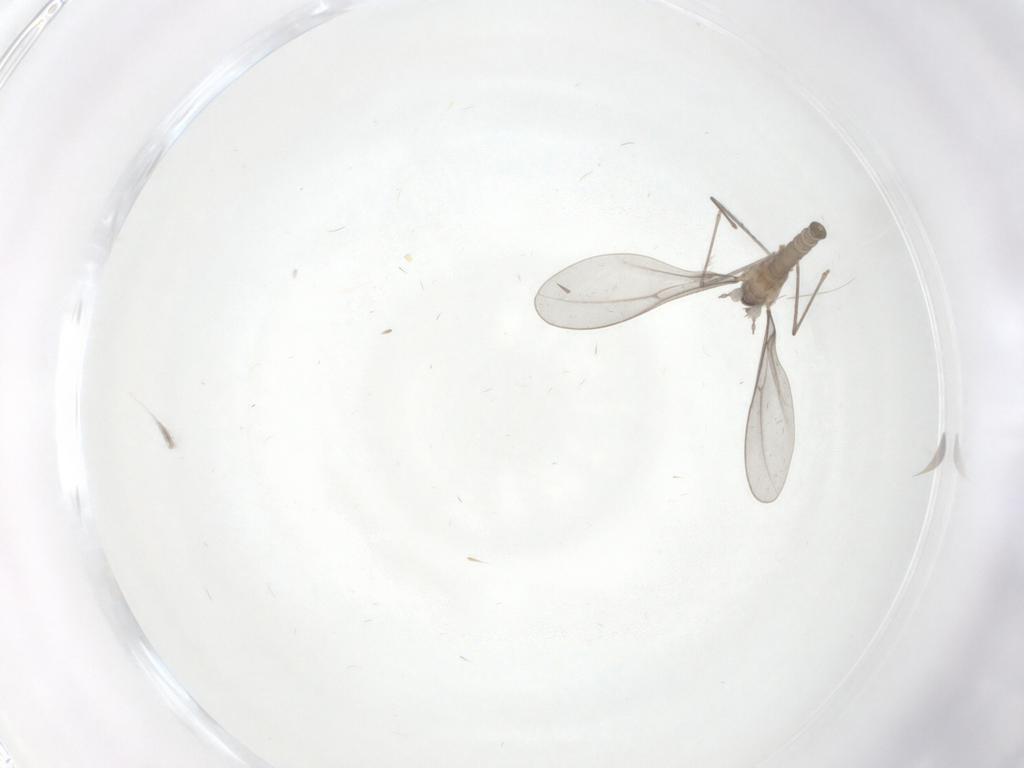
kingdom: Animalia
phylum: Arthropoda
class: Insecta
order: Diptera
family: Cecidomyiidae
